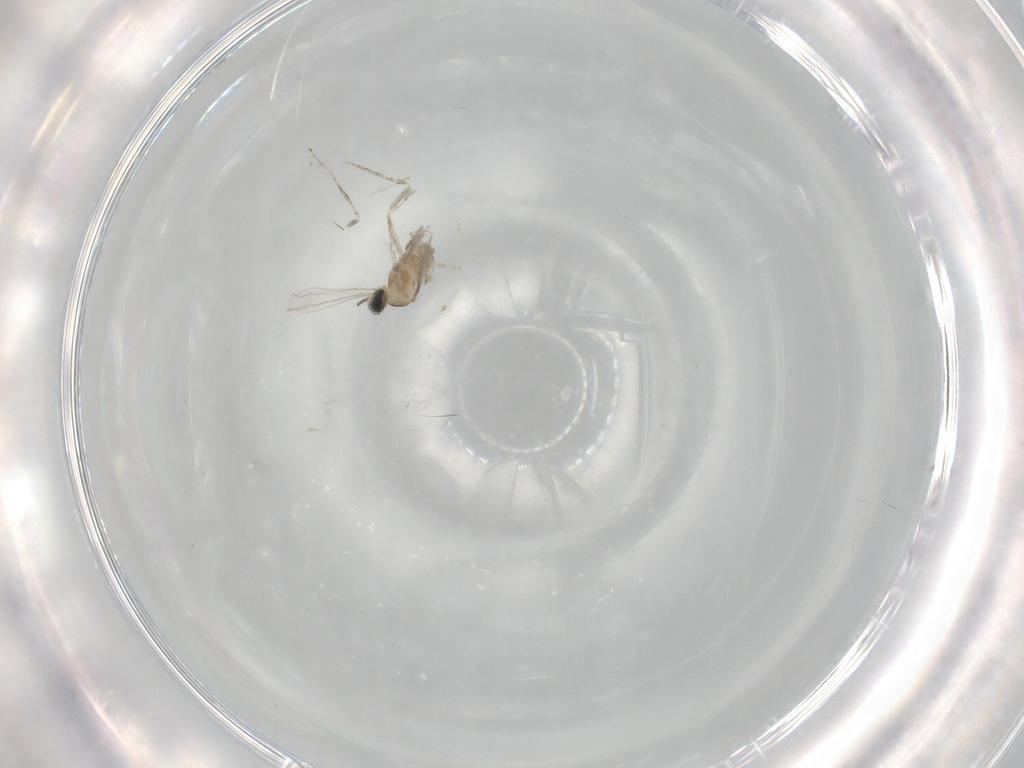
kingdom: Animalia
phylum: Arthropoda
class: Insecta
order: Diptera
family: Cecidomyiidae
